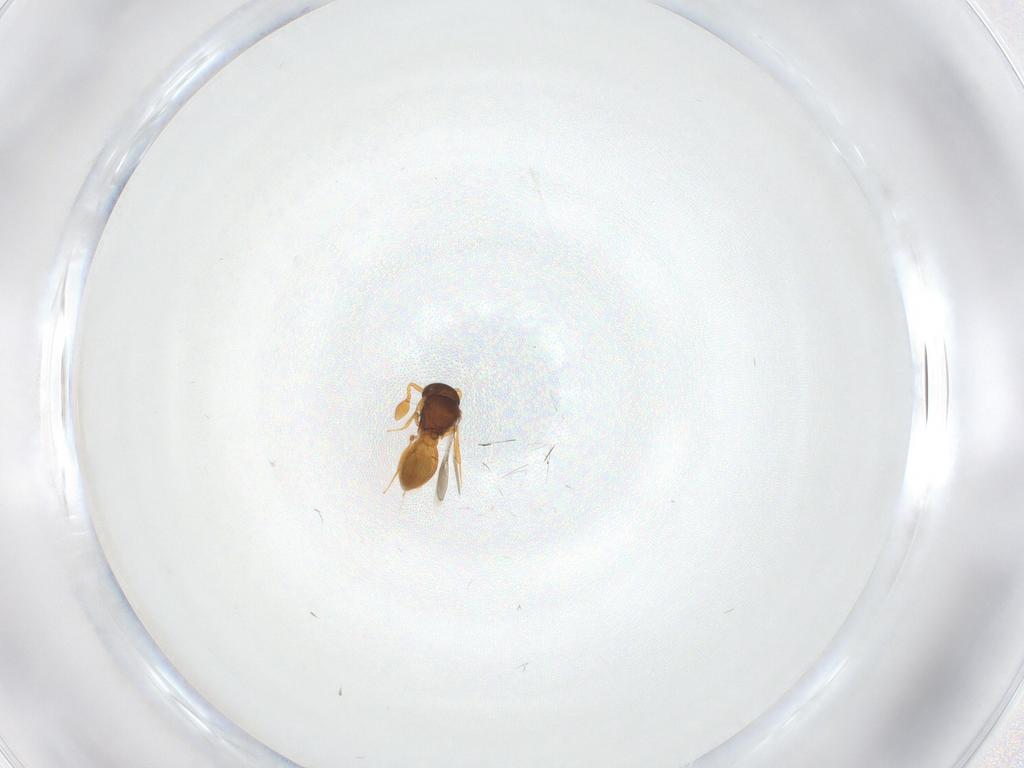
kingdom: Animalia
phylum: Arthropoda
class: Insecta
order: Hymenoptera
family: Scelionidae
